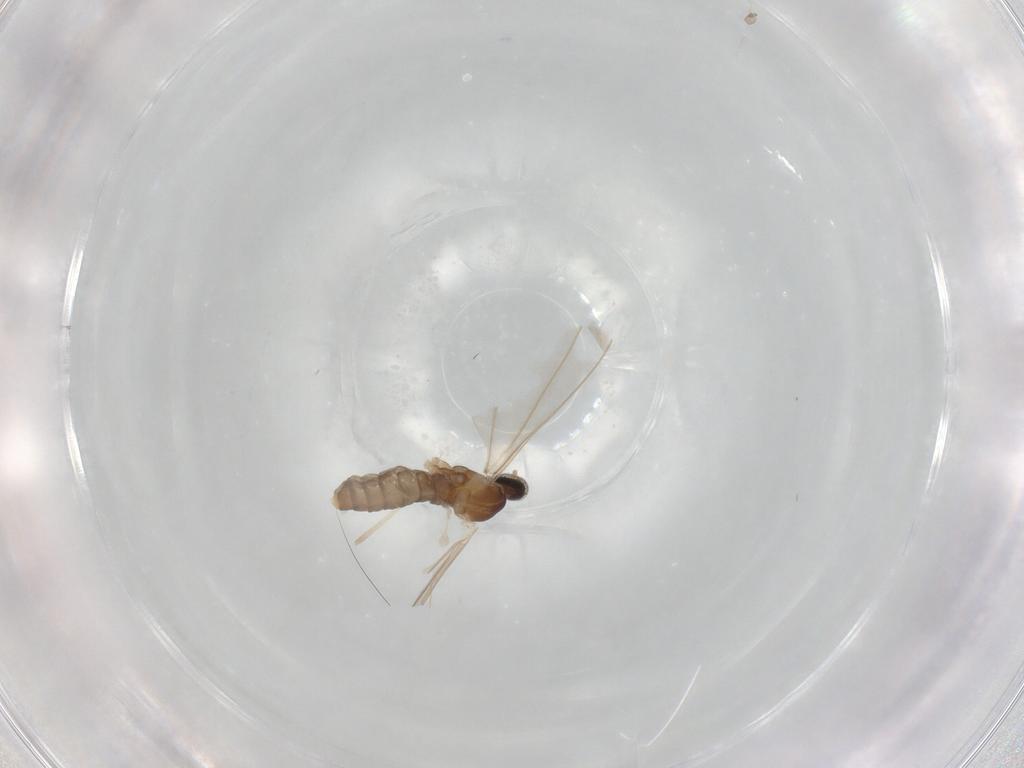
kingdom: Animalia
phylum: Arthropoda
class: Insecta
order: Diptera
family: Cecidomyiidae
